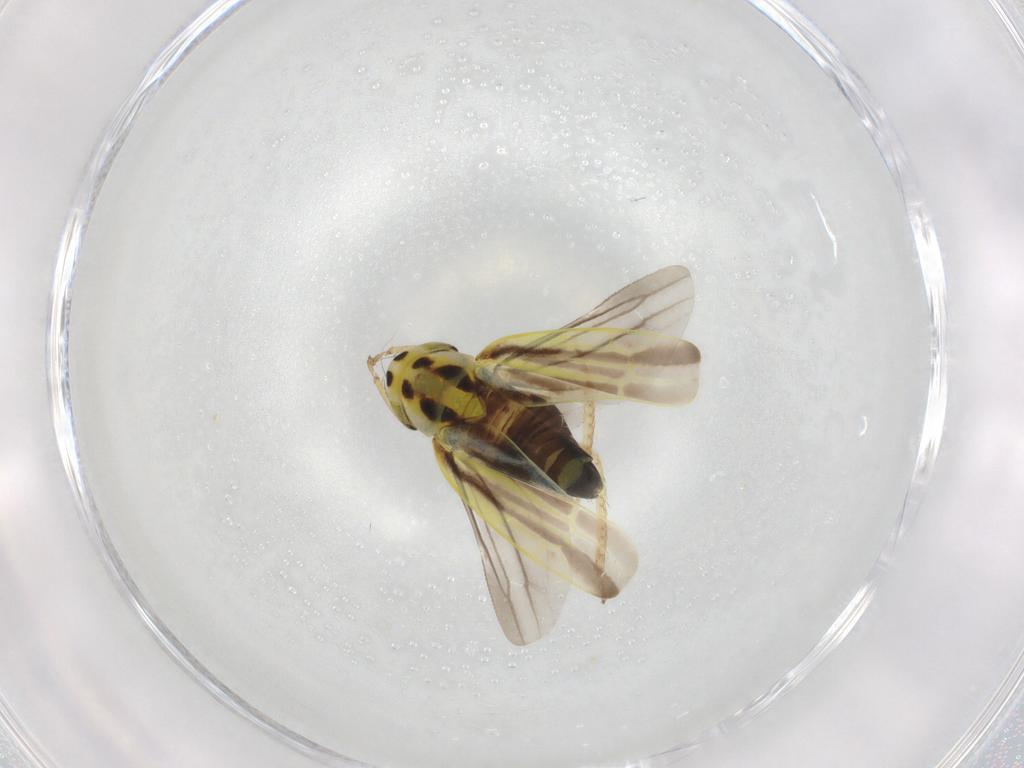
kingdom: Animalia
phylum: Arthropoda
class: Insecta
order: Hemiptera
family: Cicadellidae
